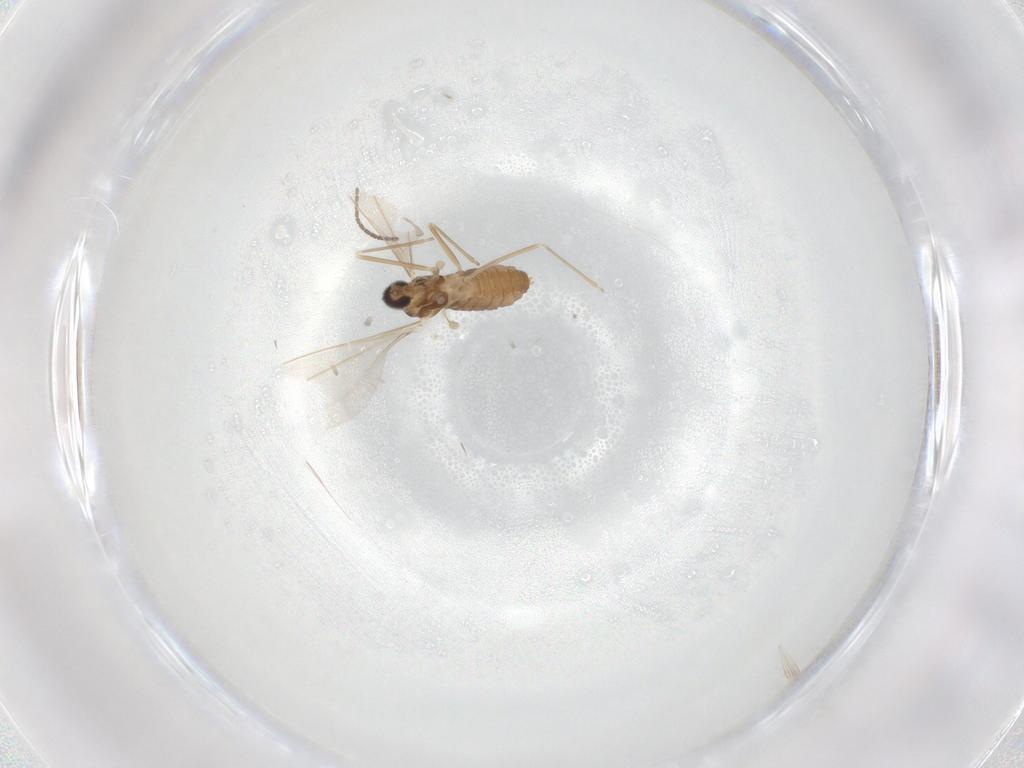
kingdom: Animalia
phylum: Arthropoda
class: Insecta
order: Diptera
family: Cecidomyiidae
